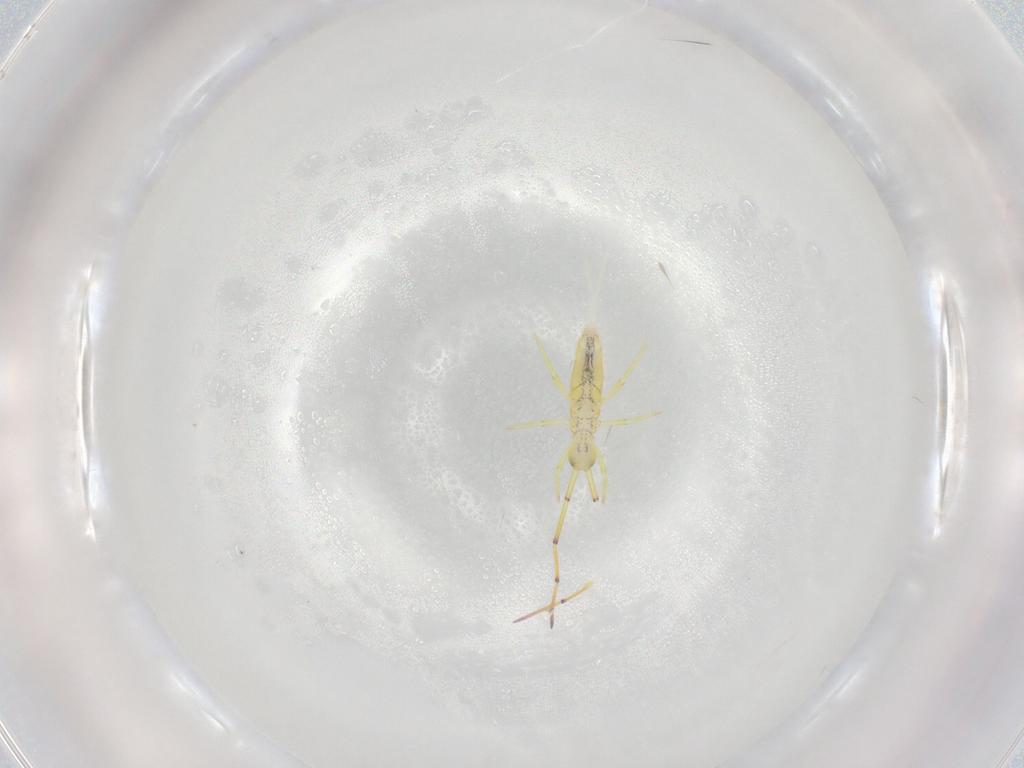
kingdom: Animalia
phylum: Arthropoda
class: Insecta
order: Hymenoptera
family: Formicidae
